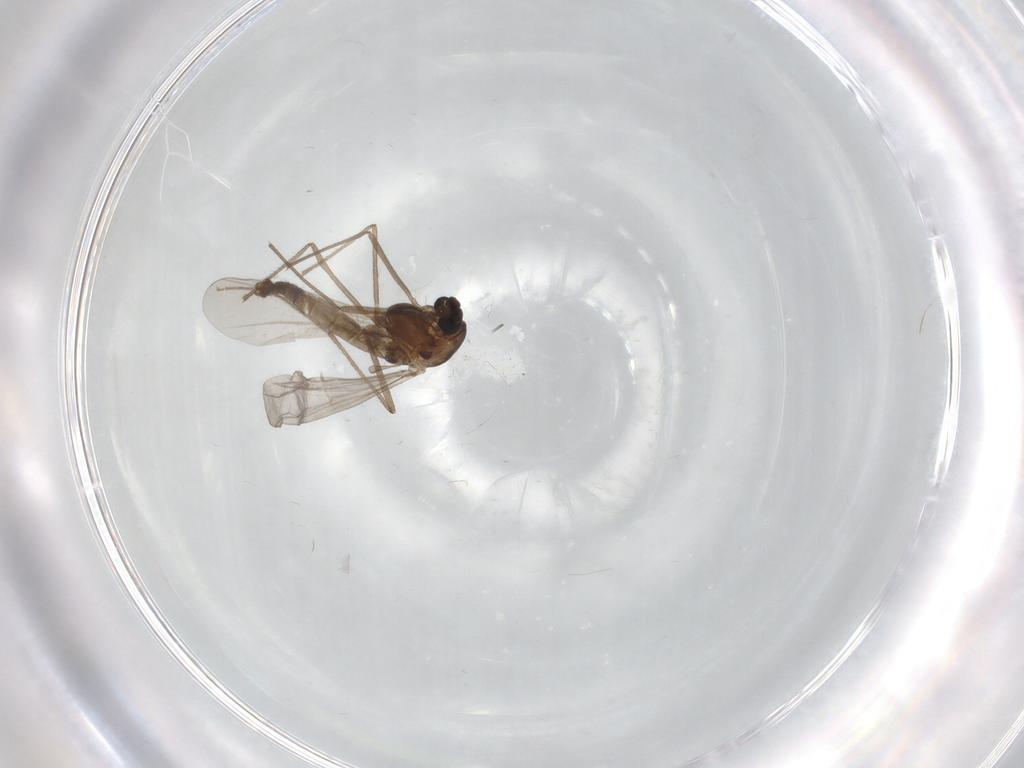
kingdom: Animalia
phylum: Arthropoda
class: Insecta
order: Diptera
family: Chironomidae
